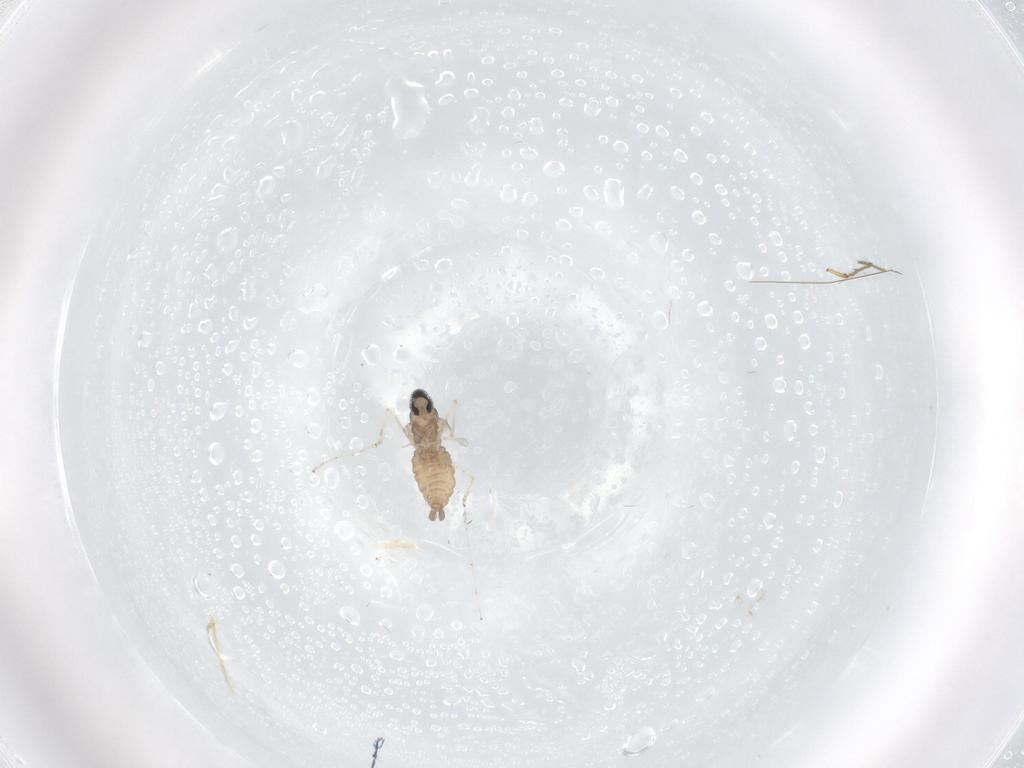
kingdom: Animalia
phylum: Arthropoda
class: Insecta
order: Diptera
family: Cecidomyiidae
